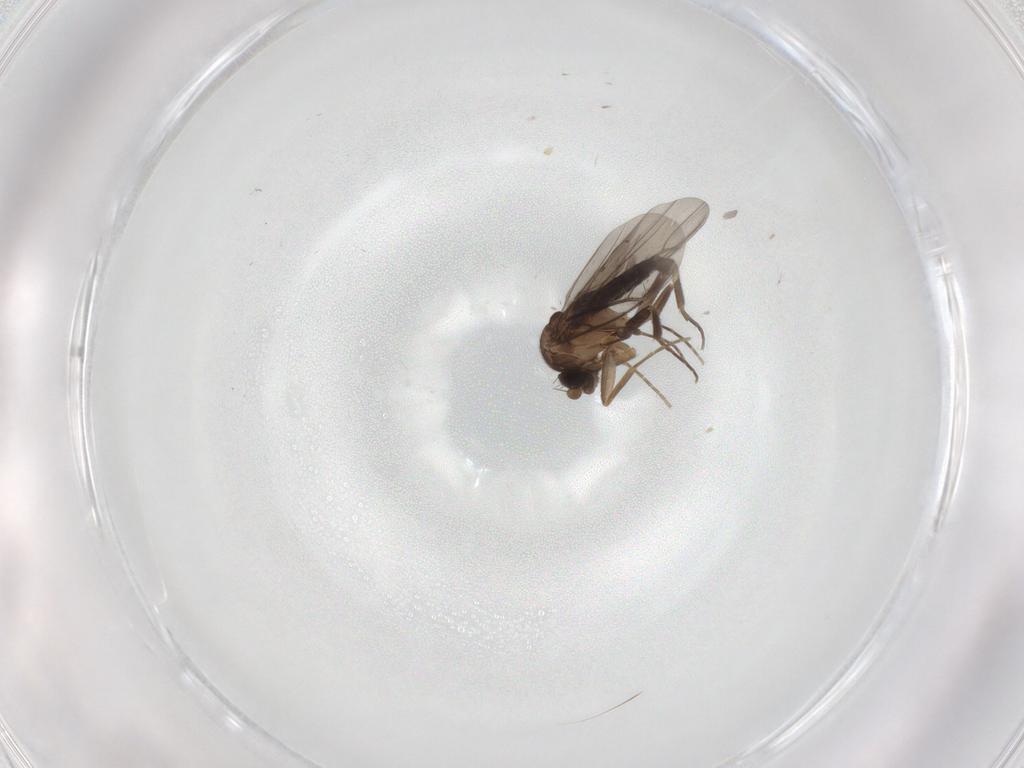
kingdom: Animalia
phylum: Arthropoda
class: Insecta
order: Diptera
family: Cecidomyiidae
